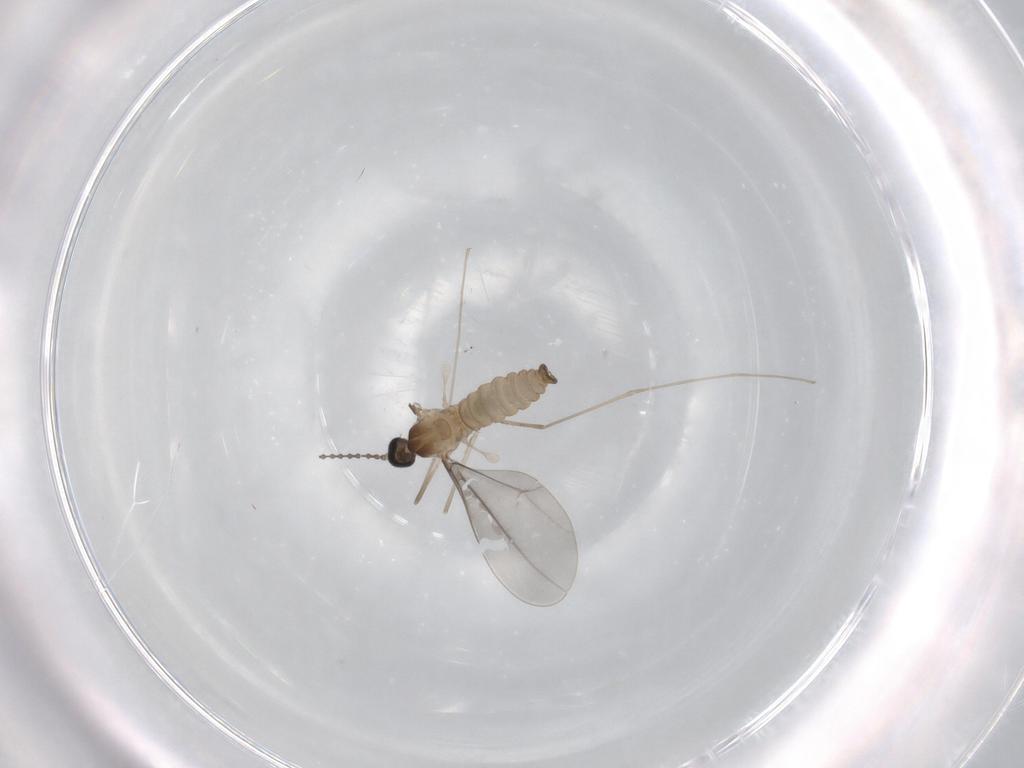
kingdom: Animalia
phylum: Arthropoda
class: Insecta
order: Diptera
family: Cecidomyiidae
